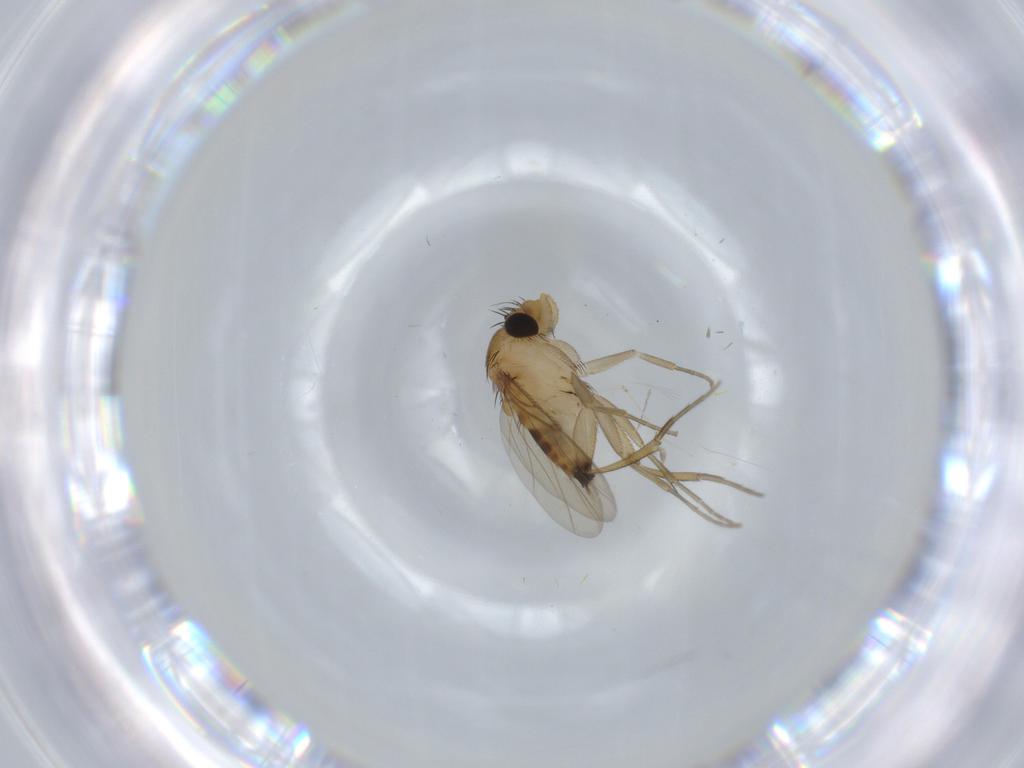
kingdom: Animalia
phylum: Arthropoda
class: Insecta
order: Diptera
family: Phoridae
